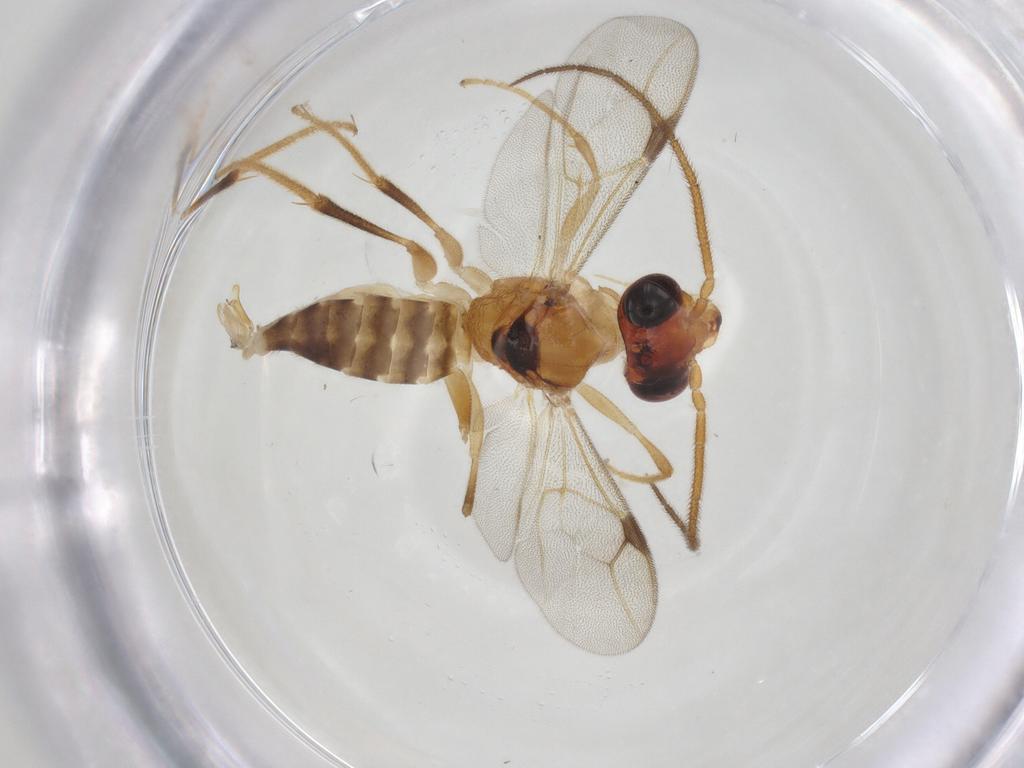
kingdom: Animalia
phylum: Arthropoda
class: Insecta
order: Hymenoptera
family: Dryinidae
